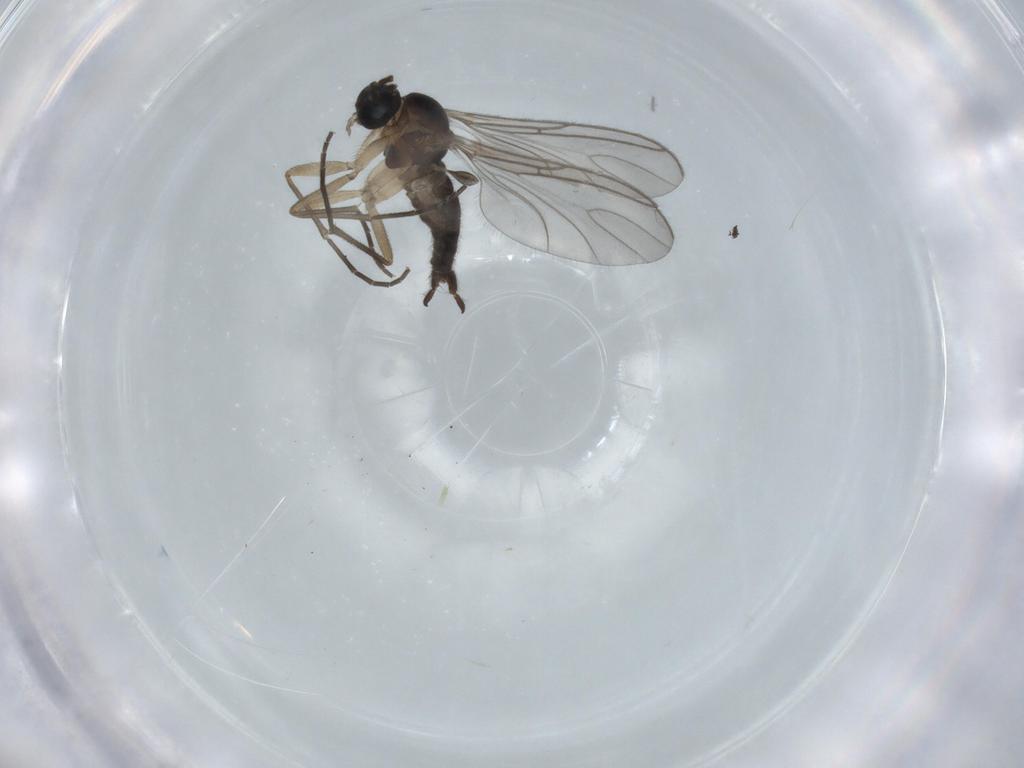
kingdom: Animalia
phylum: Arthropoda
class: Insecta
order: Diptera
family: Sciaridae
